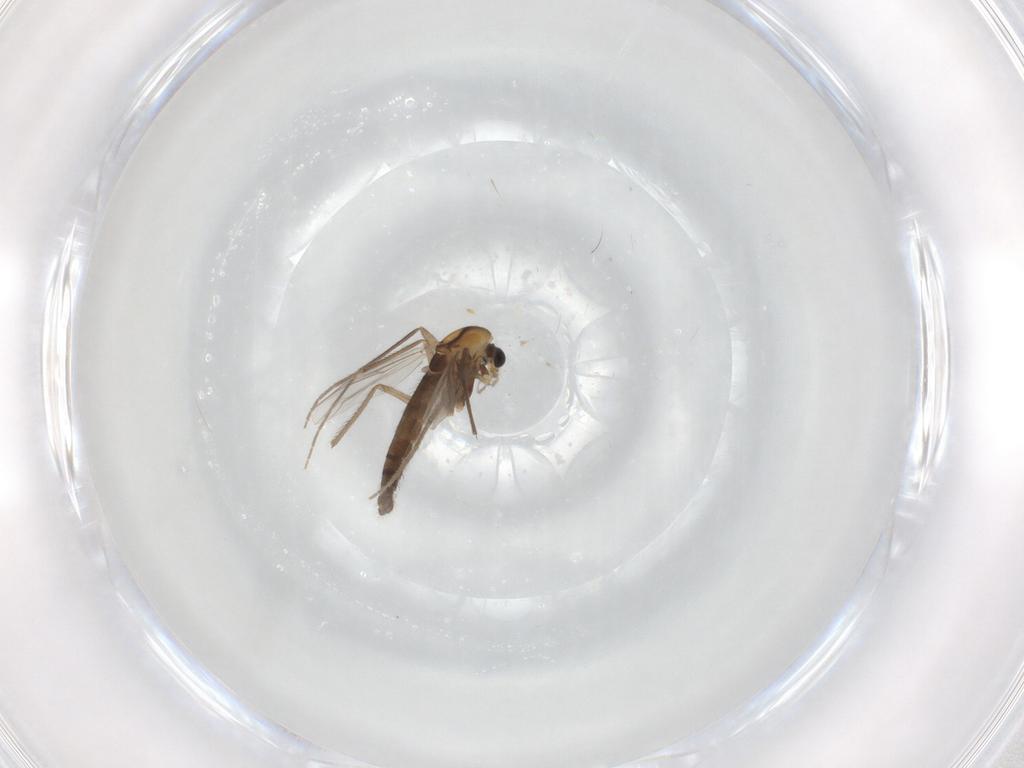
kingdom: Animalia
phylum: Arthropoda
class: Insecta
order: Diptera
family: Chironomidae
